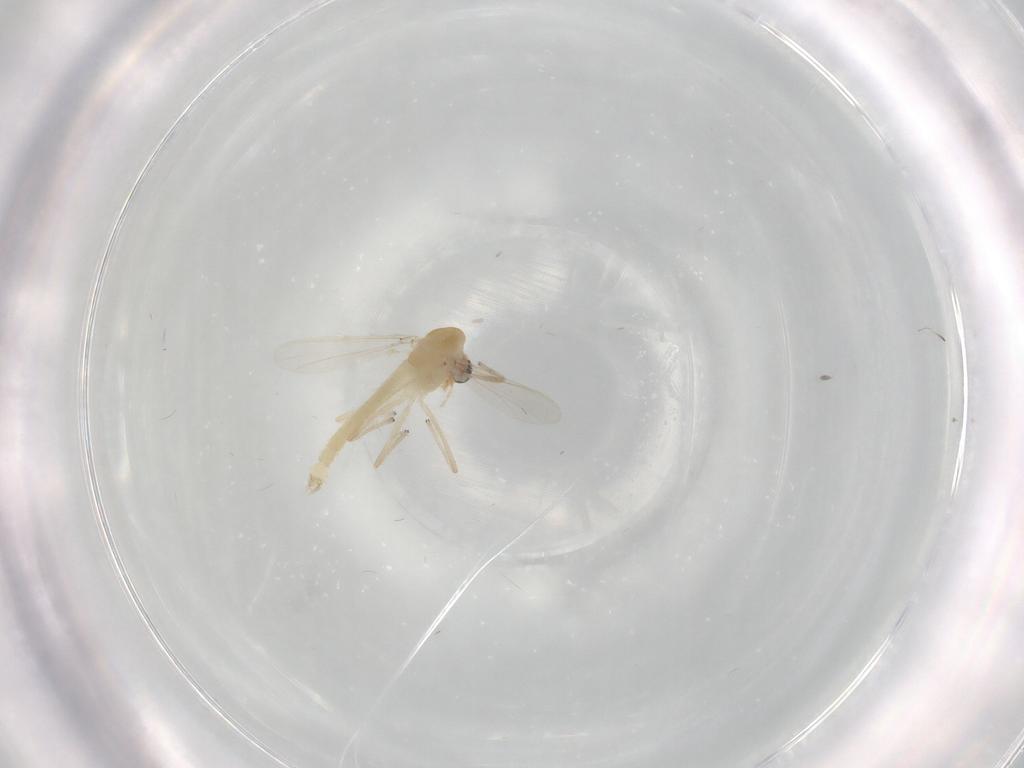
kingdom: Animalia
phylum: Arthropoda
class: Insecta
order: Diptera
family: Chironomidae
